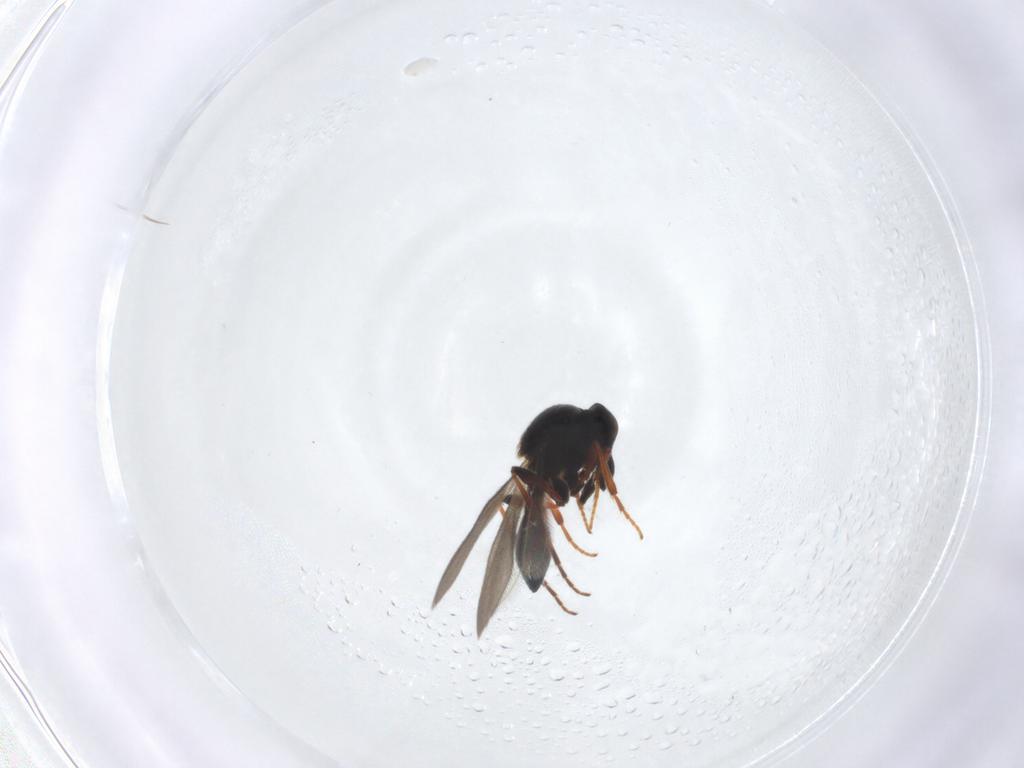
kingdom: Animalia
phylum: Arthropoda
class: Insecta
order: Hymenoptera
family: Platygastridae
